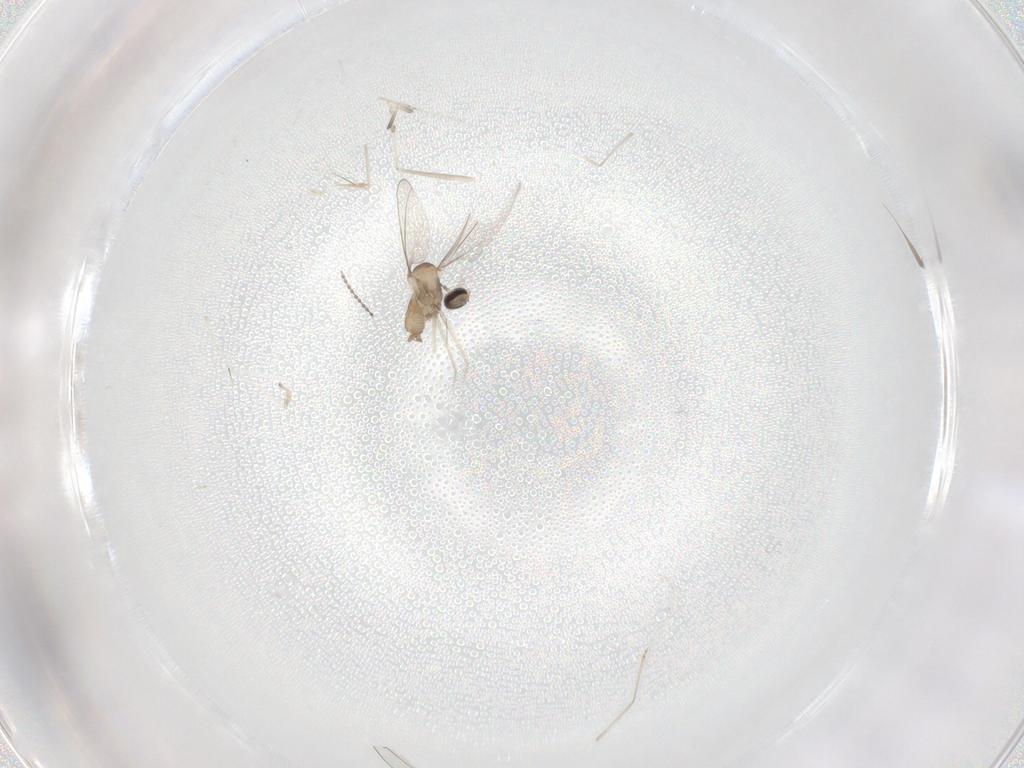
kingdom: Animalia
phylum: Arthropoda
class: Insecta
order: Diptera
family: Cecidomyiidae
